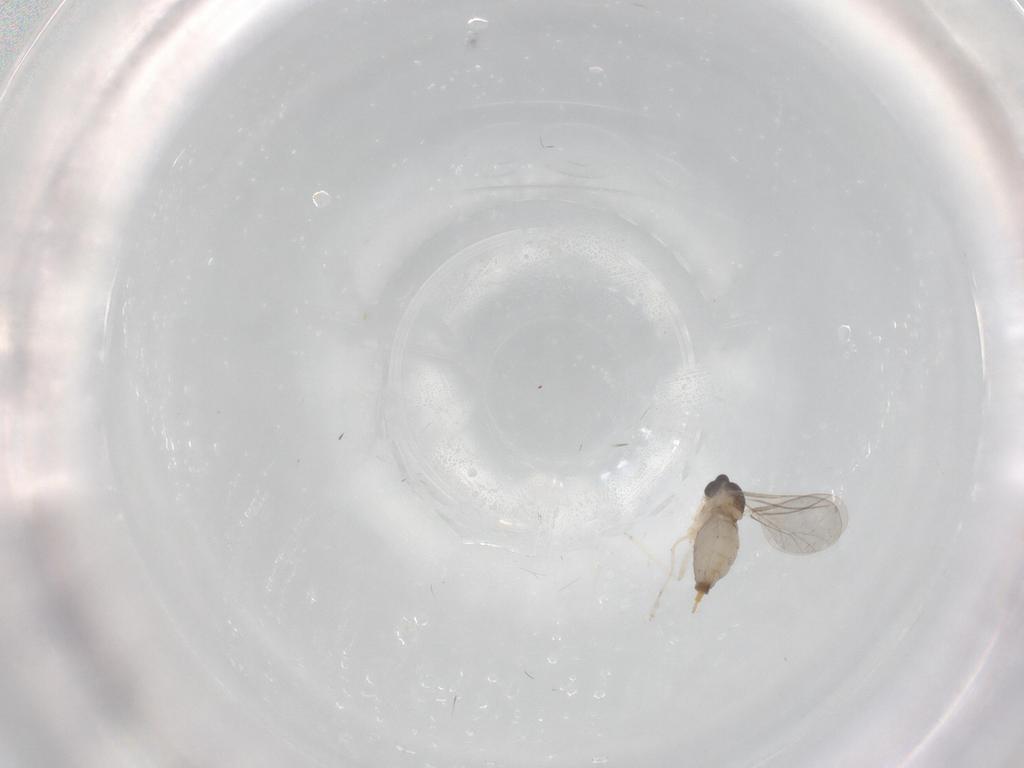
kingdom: Animalia
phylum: Arthropoda
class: Insecta
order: Diptera
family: Cecidomyiidae
